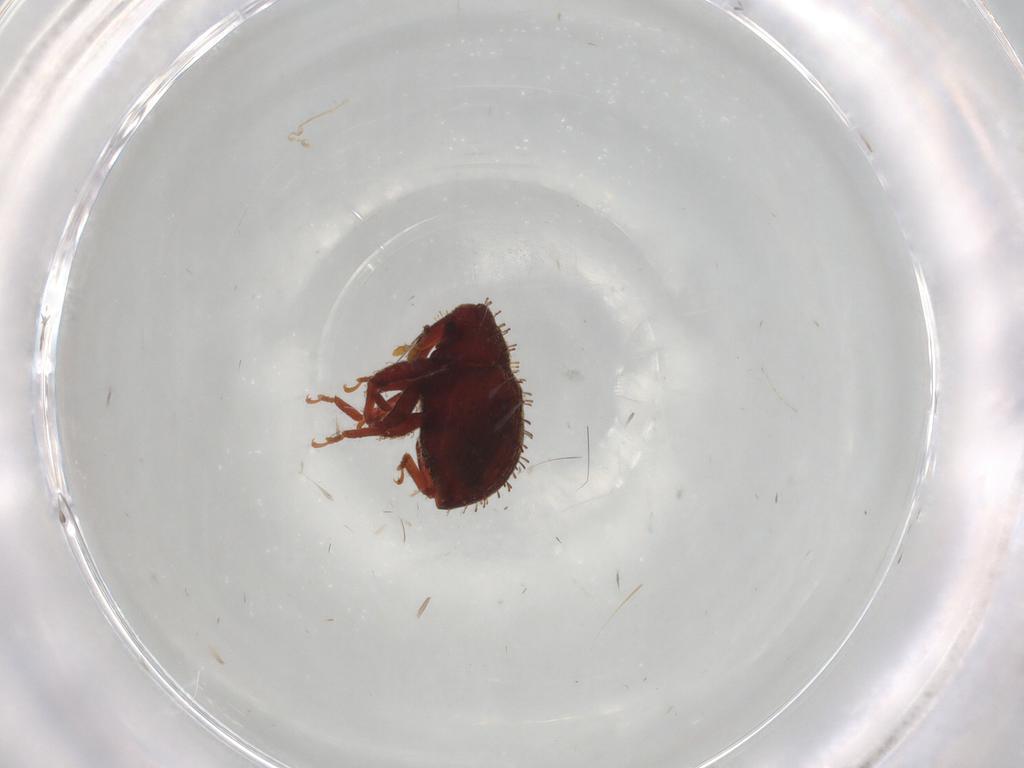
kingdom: Animalia
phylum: Arthropoda
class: Insecta
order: Coleoptera
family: Curculionidae
